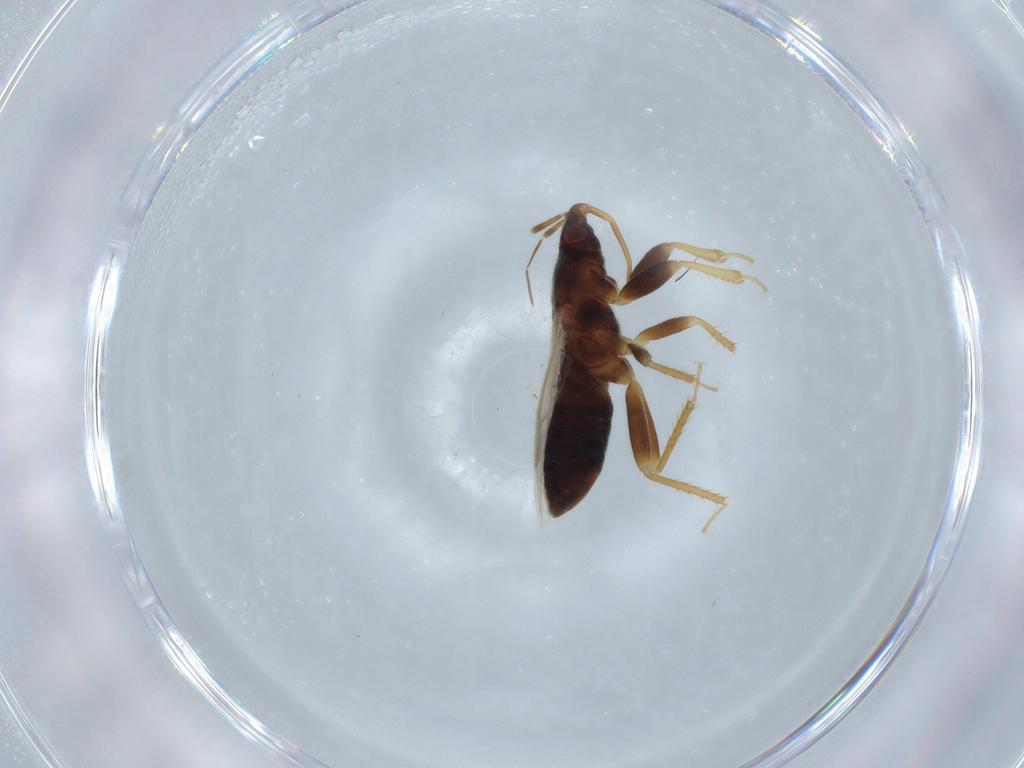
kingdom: Animalia
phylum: Arthropoda
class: Insecta
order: Hemiptera
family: Anthocoridae
